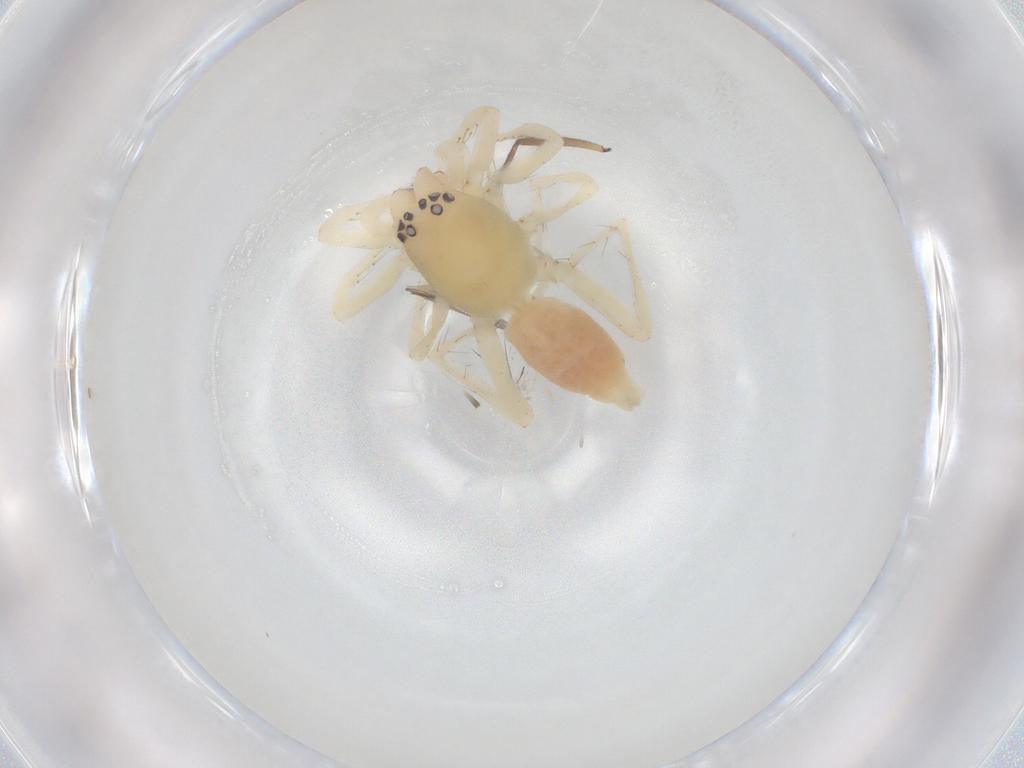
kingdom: Animalia
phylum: Arthropoda
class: Arachnida
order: Araneae
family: Clubionidae
